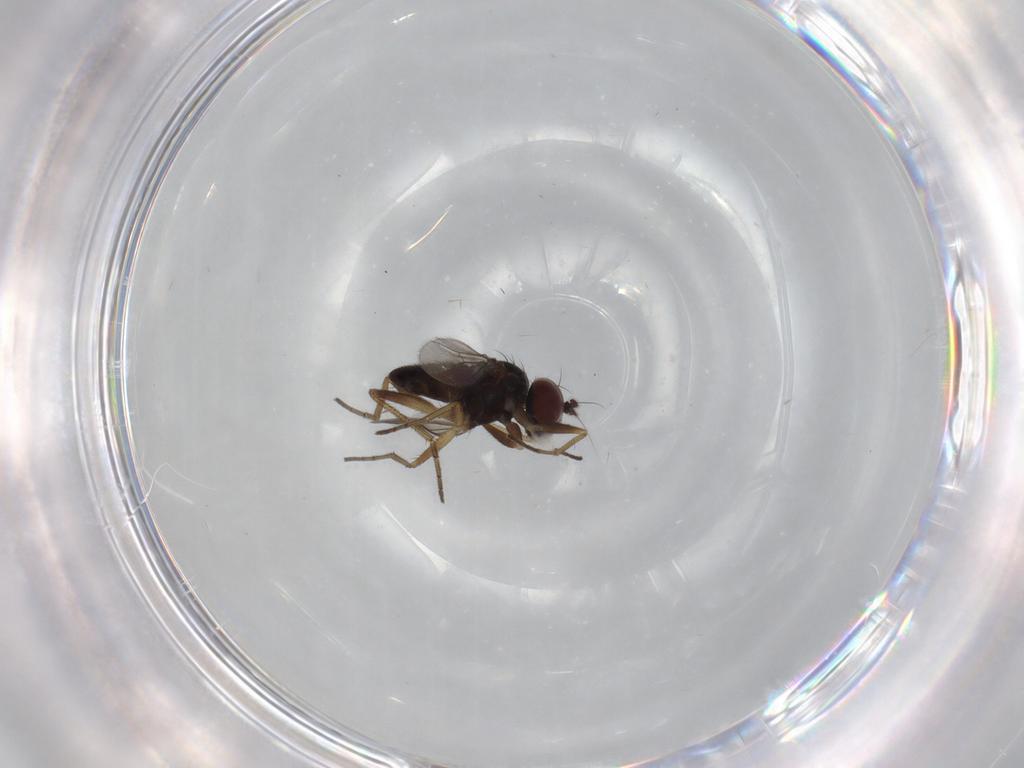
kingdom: Animalia
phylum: Arthropoda
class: Insecta
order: Diptera
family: Dolichopodidae
